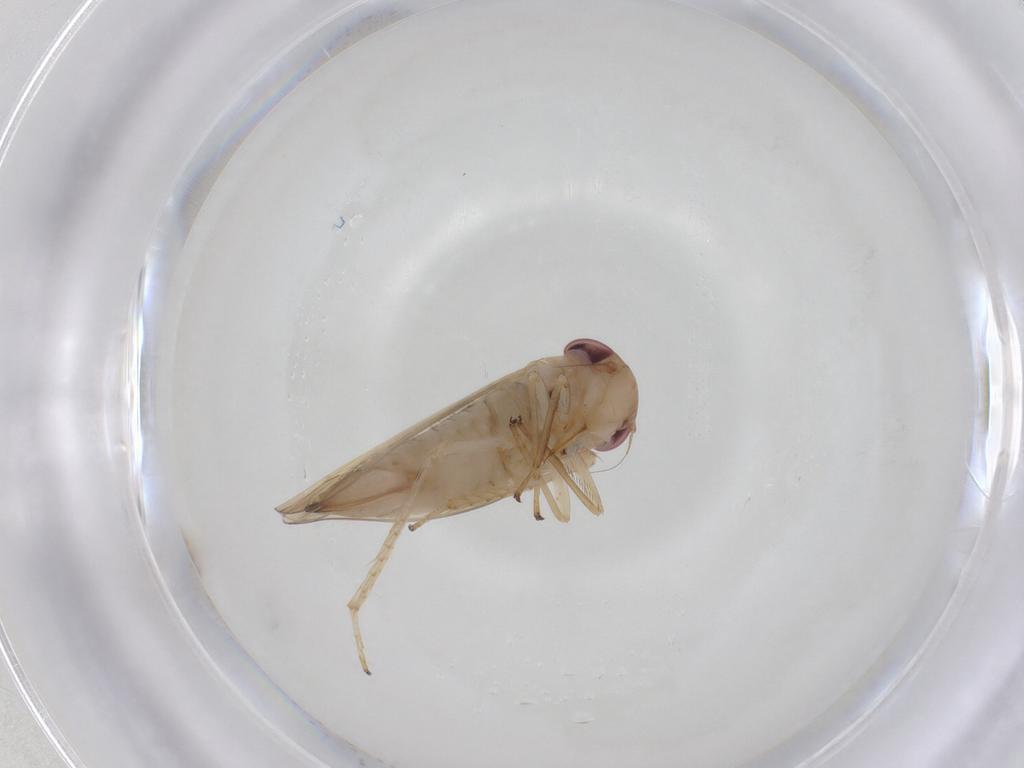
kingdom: Animalia
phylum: Arthropoda
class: Insecta
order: Hemiptera
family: Cicadellidae
